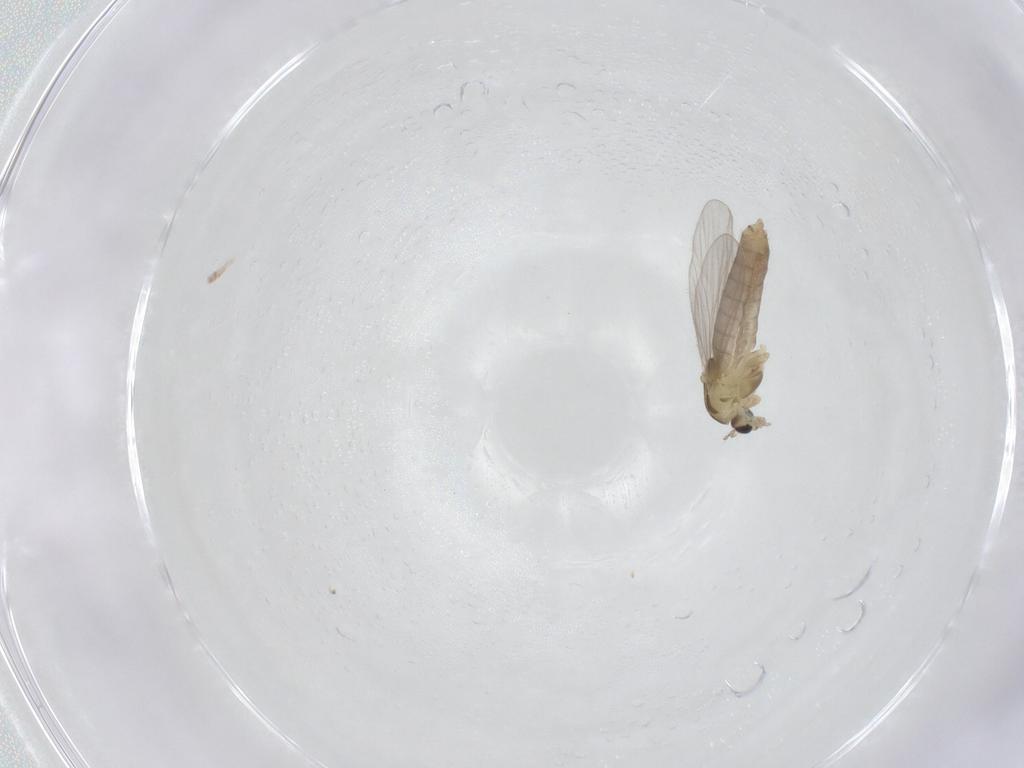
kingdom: Animalia
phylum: Arthropoda
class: Insecta
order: Diptera
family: Chironomidae
